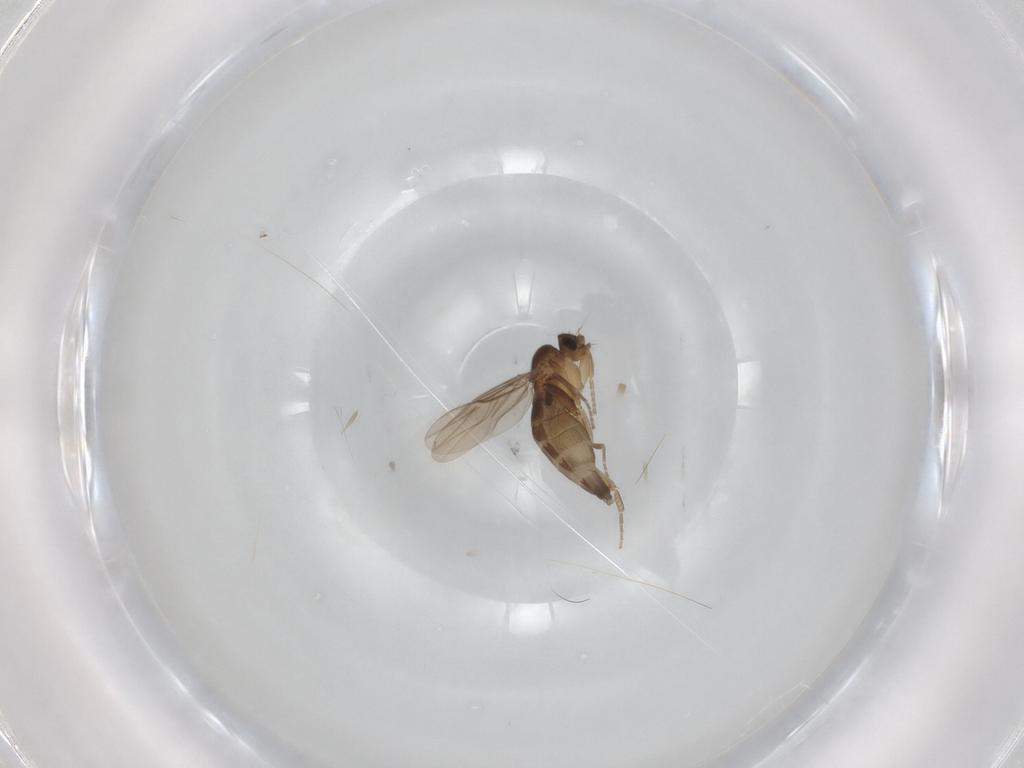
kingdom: Animalia
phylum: Arthropoda
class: Insecta
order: Diptera
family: Phoridae
